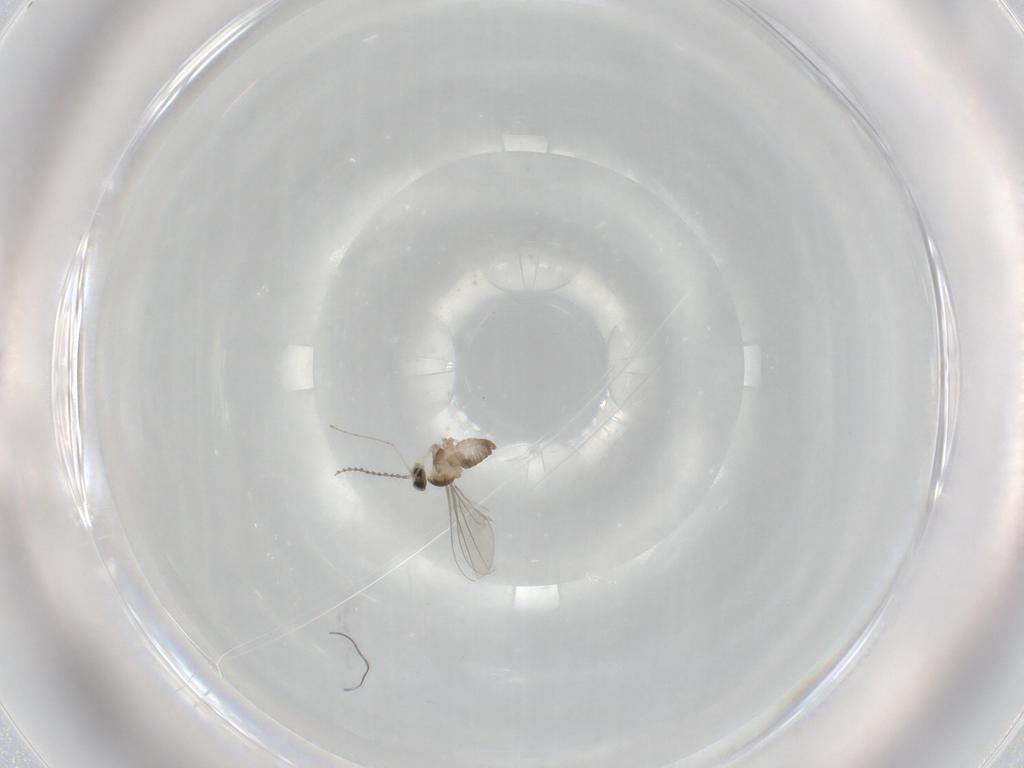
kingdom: Animalia
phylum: Arthropoda
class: Insecta
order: Diptera
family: Cecidomyiidae
